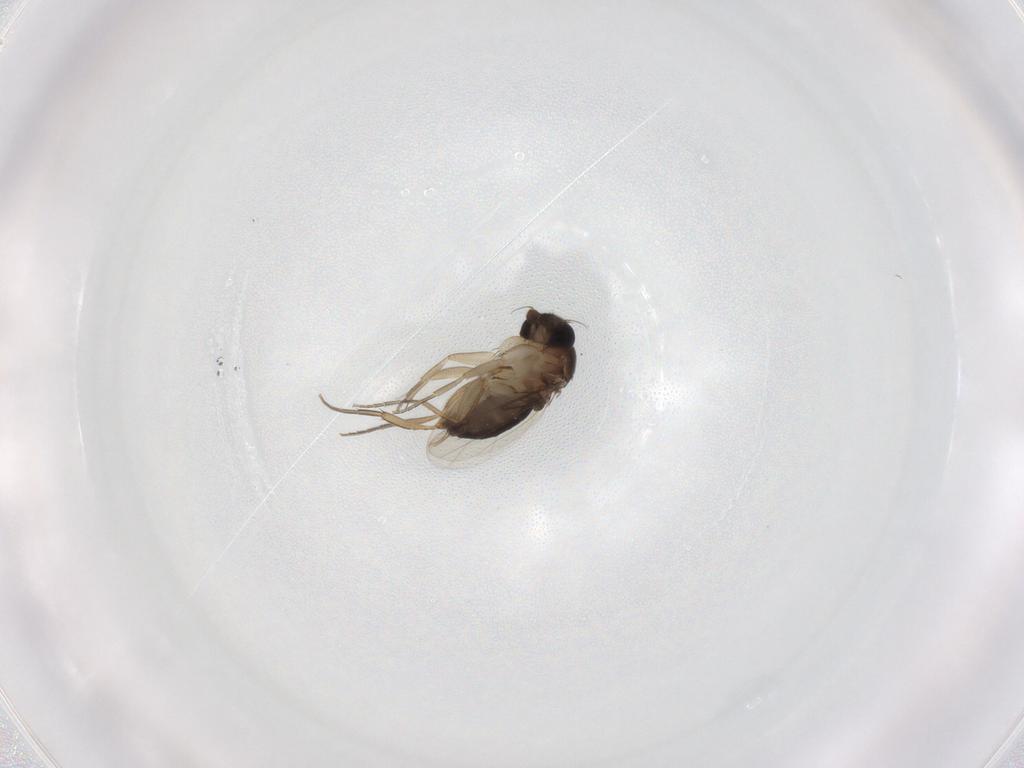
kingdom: Animalia
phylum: Arthropoda
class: Insecta
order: Diptera
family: Phoridae
